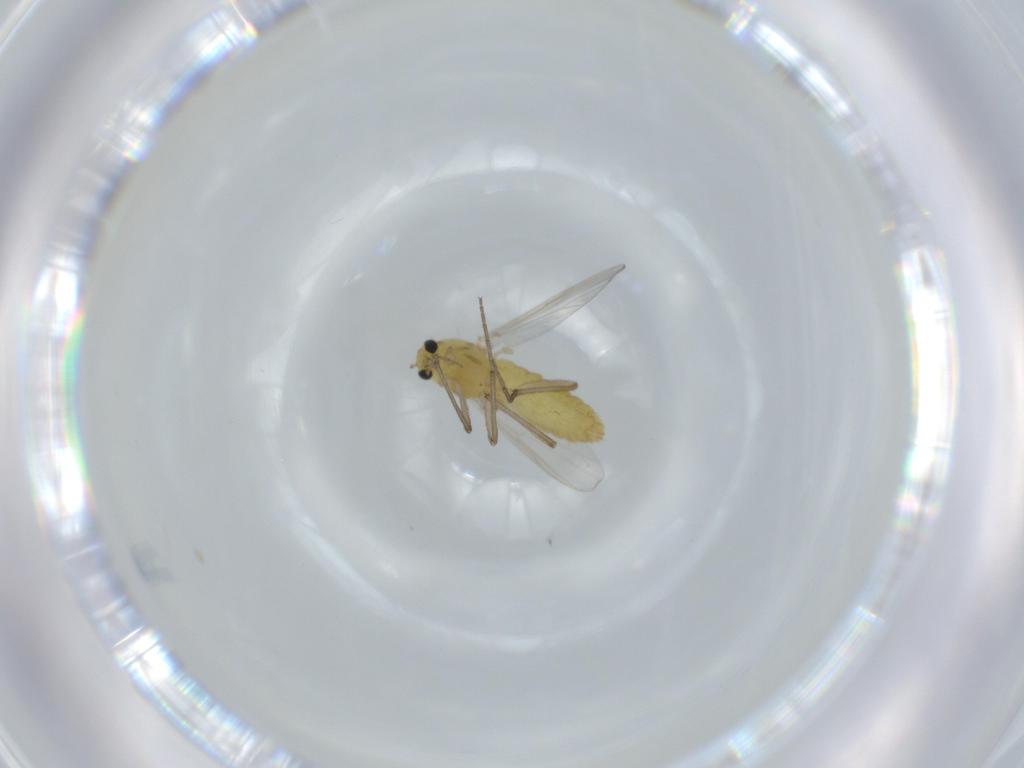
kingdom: Animalia
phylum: Arthropoda
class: Insecta
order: Diptera
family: Chironomidae
